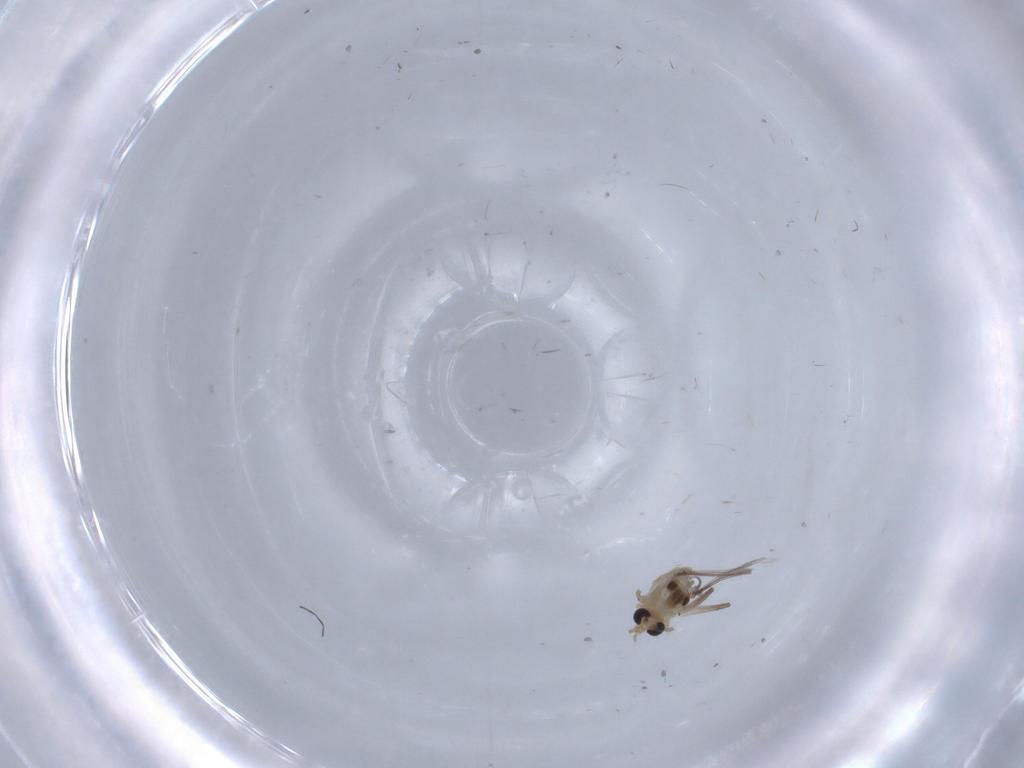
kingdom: Animalia
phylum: Arthropoda
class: Insecta
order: Diptera
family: Chironomidae
